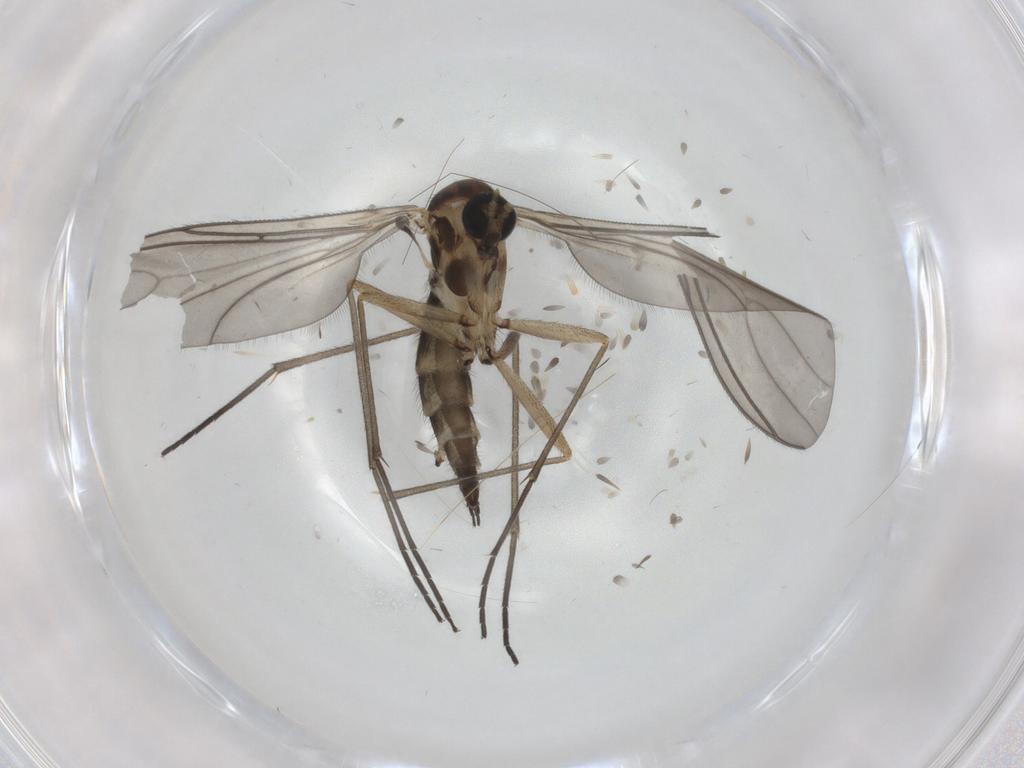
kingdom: Animalia
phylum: Arthropoda
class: Insecta
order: Diptera
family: Sciaridae
